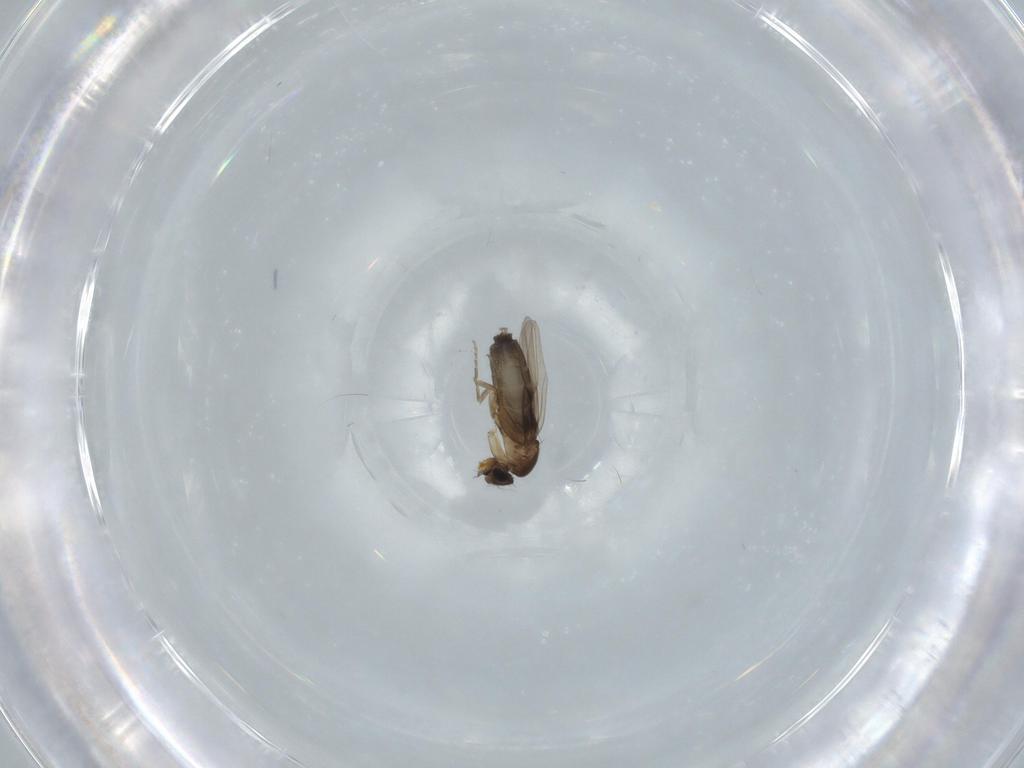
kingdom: Animalia
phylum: Arthropoda
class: Insecta
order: Diptera
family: Phoridae
